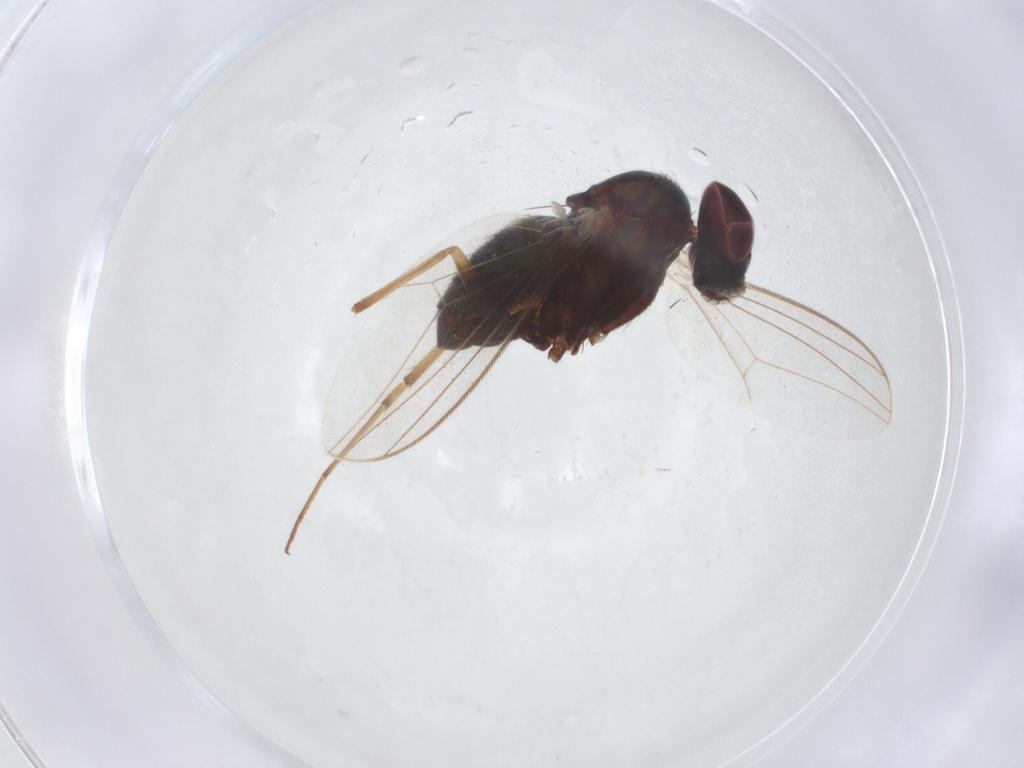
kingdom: Animalia
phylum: Arthropoda
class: Insecta
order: Diptera
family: Dolichopodidae
